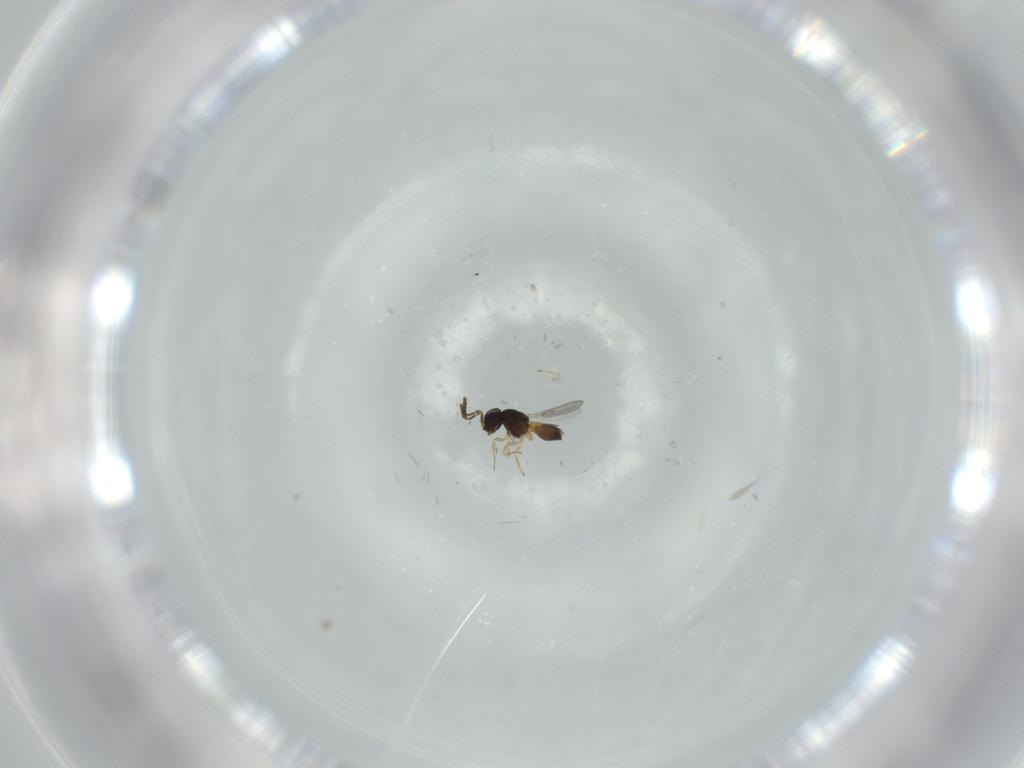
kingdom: Animalia
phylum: Arthropoda
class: Insecta
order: Hymenoptera
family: Scelionidae
